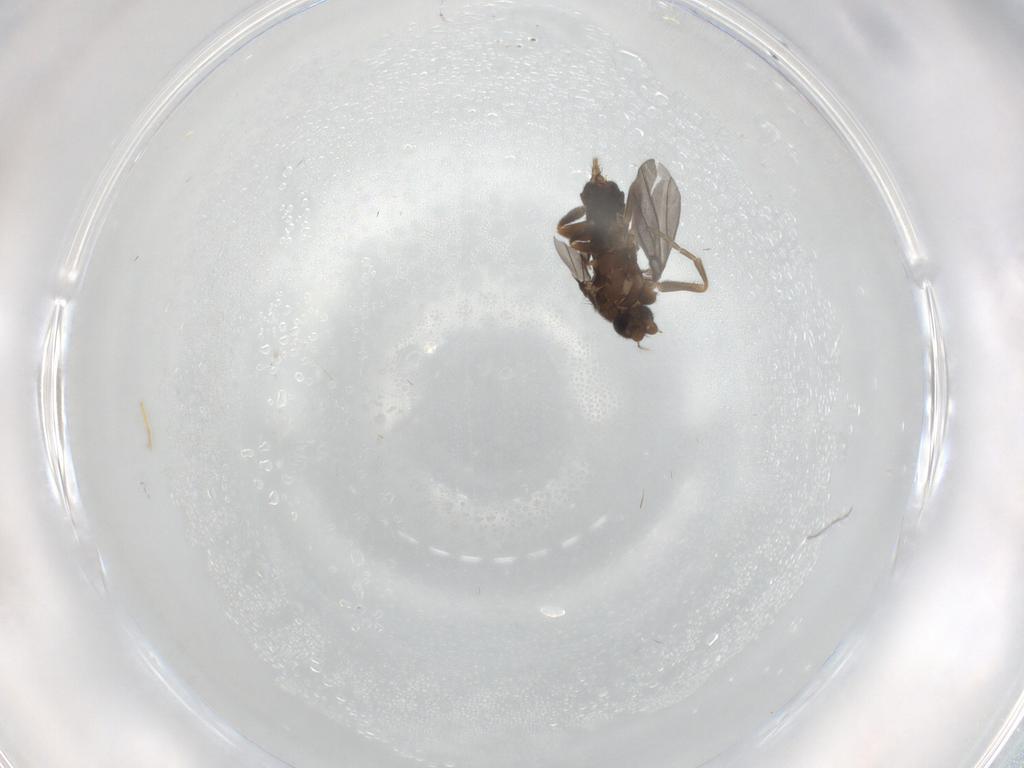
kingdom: Animalia
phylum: Arthropoda
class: Insecta
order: Diptera
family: Phoridae
